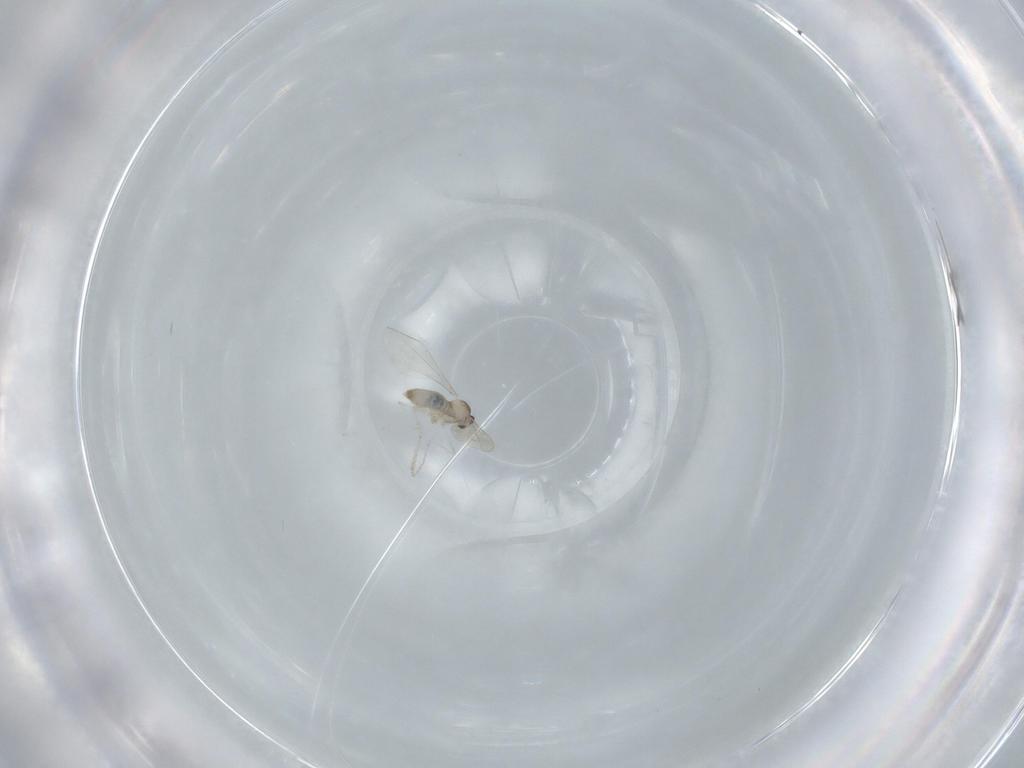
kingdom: Animalia
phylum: Arthropoda
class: Insecta
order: Diptera
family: Cecidomyiidae
